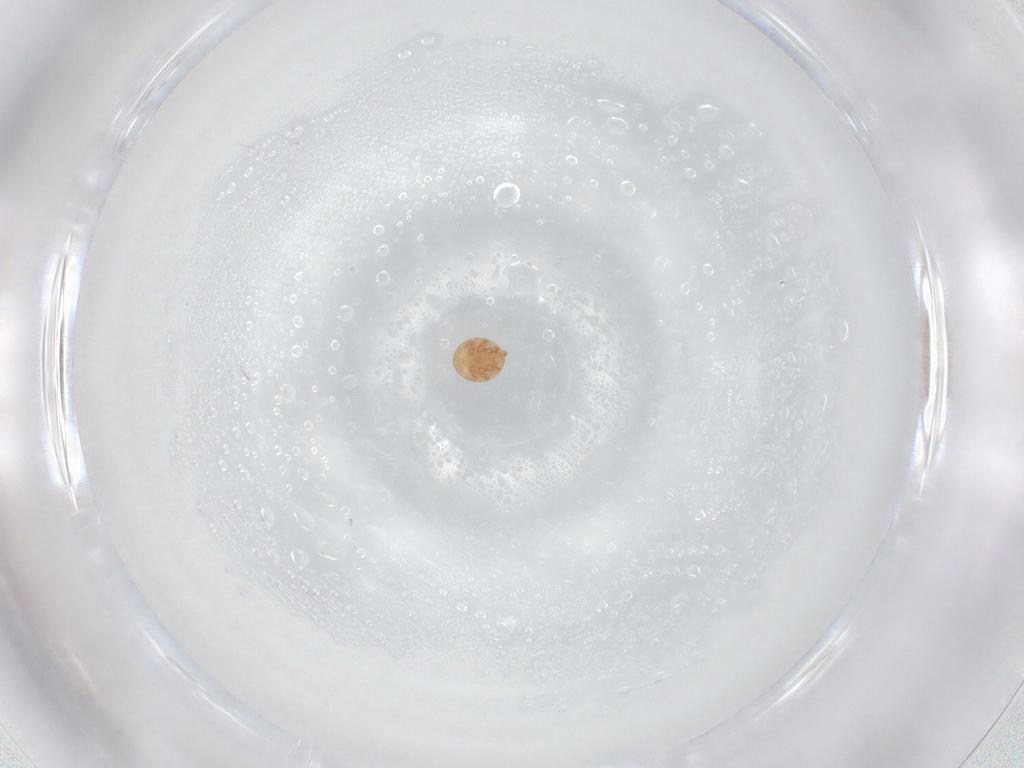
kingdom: Animalia
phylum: Arthropoda
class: Arachnida
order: Mesostigmata
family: Trematuridae
